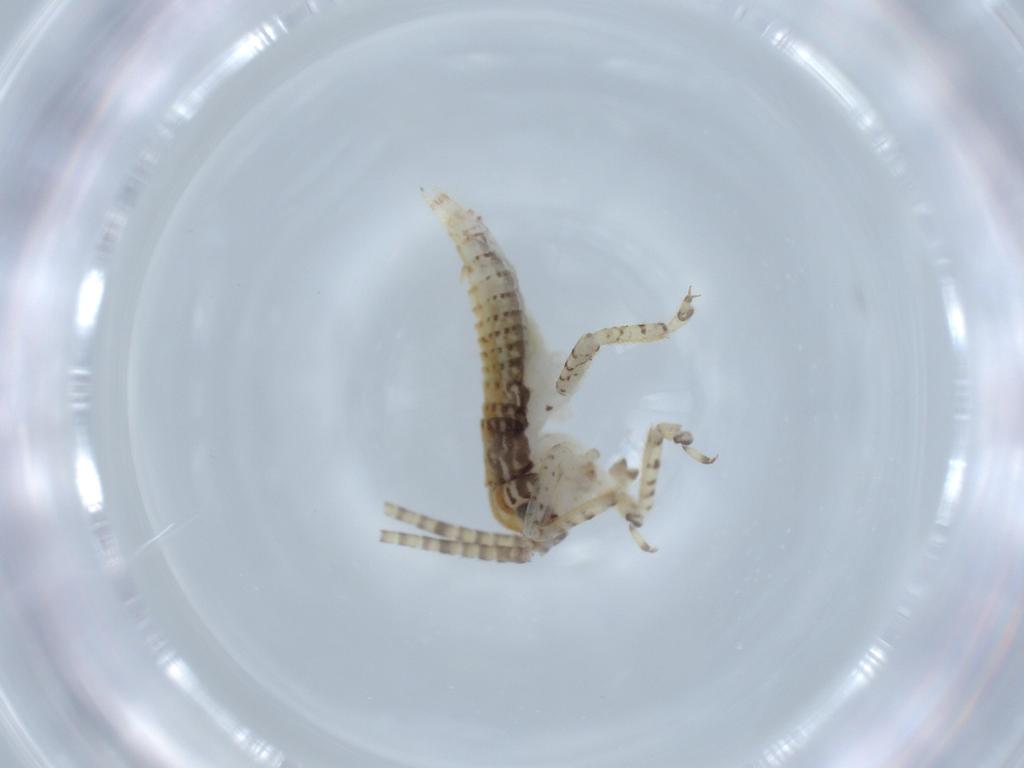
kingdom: Animalia
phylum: Arthropoda
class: Insecta
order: Orthoptera
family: Gryllidae
